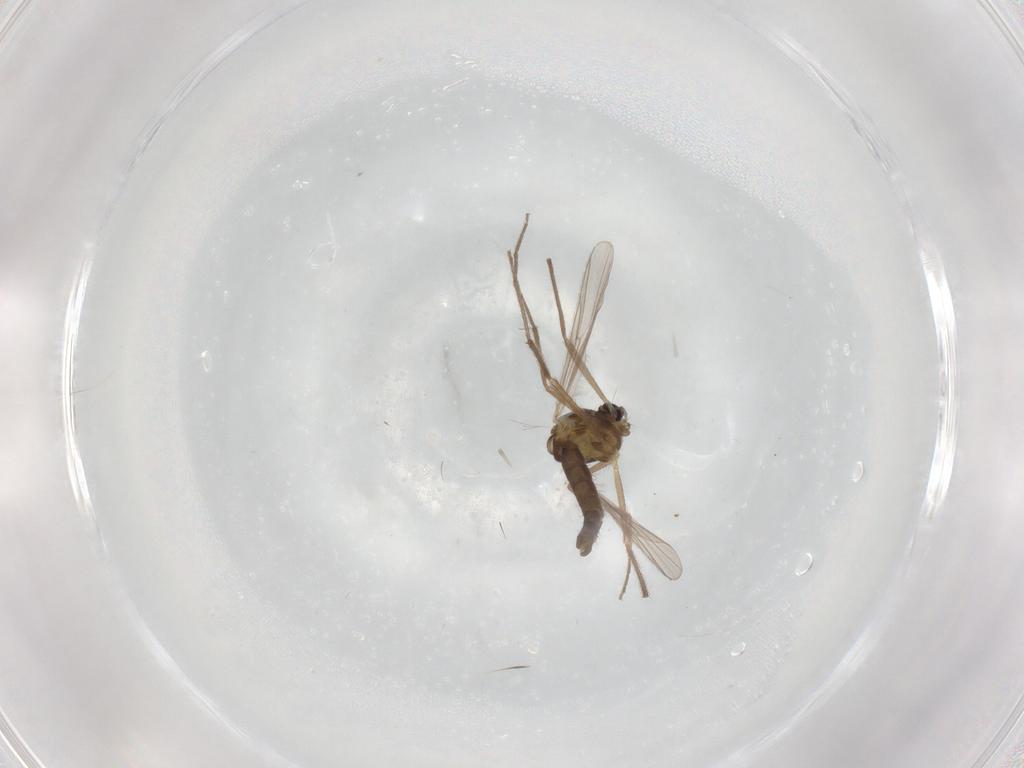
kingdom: Animalia
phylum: Arthropoda
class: Insecta
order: Diptera
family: Chironomidae
